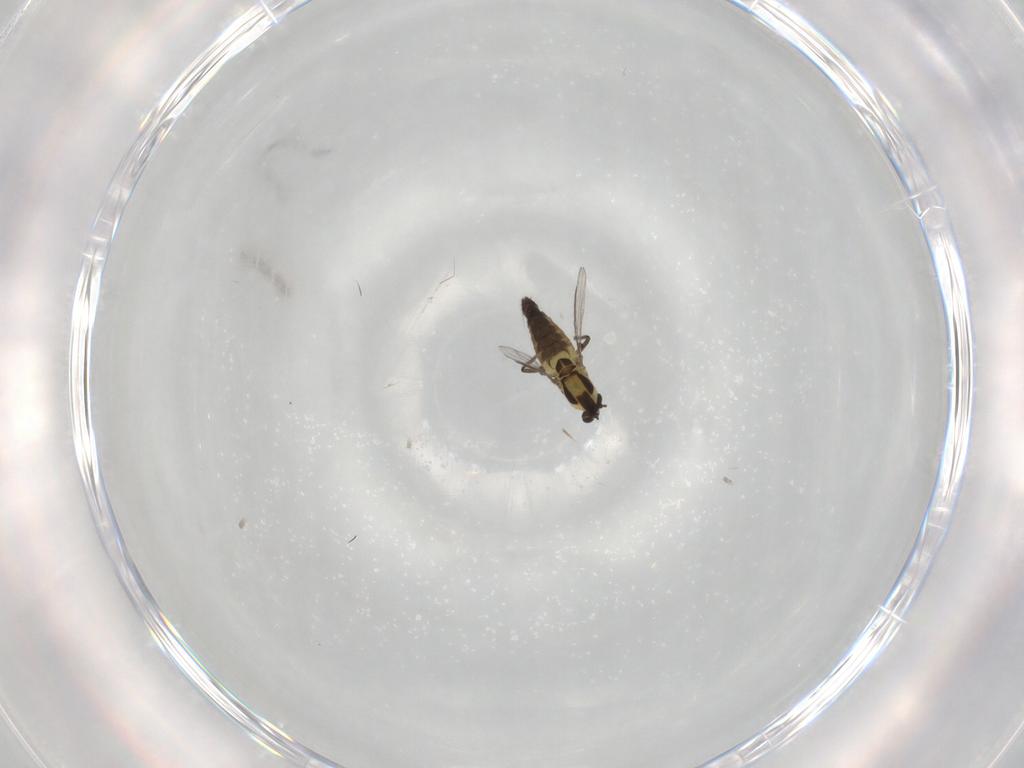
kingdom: Animalia
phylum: Arthropoda
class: Insecta
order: Diptera
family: Chironomidae
